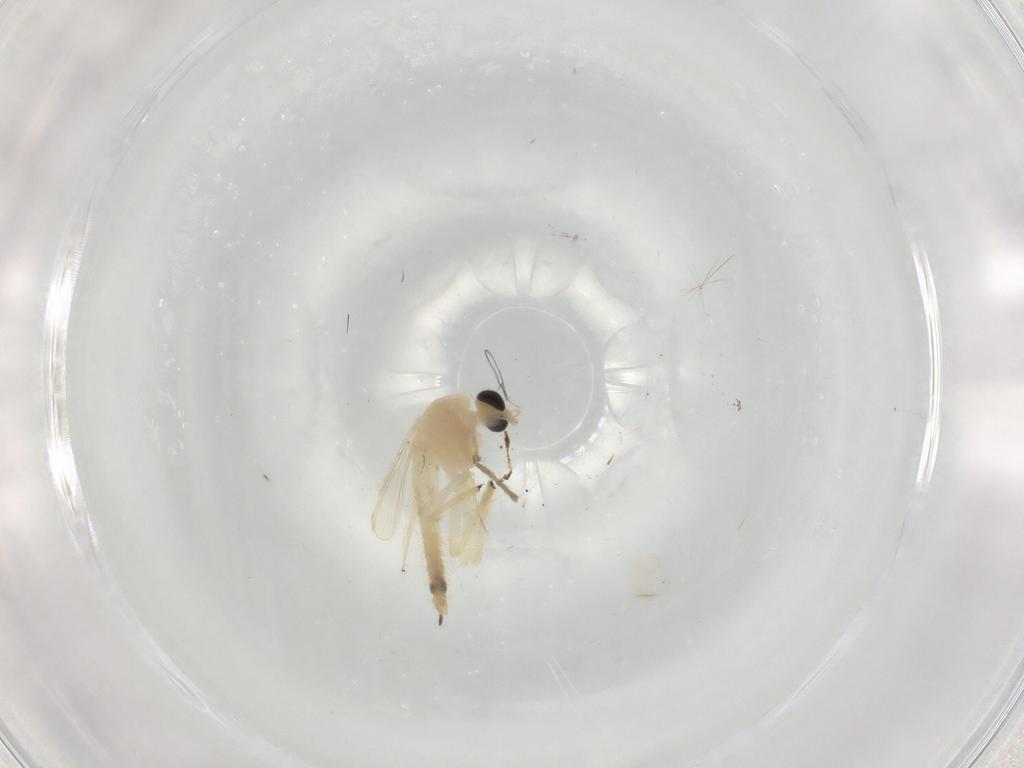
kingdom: Animalia
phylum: Arthropoda
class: Insecta
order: Diptera
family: Chironomidae
